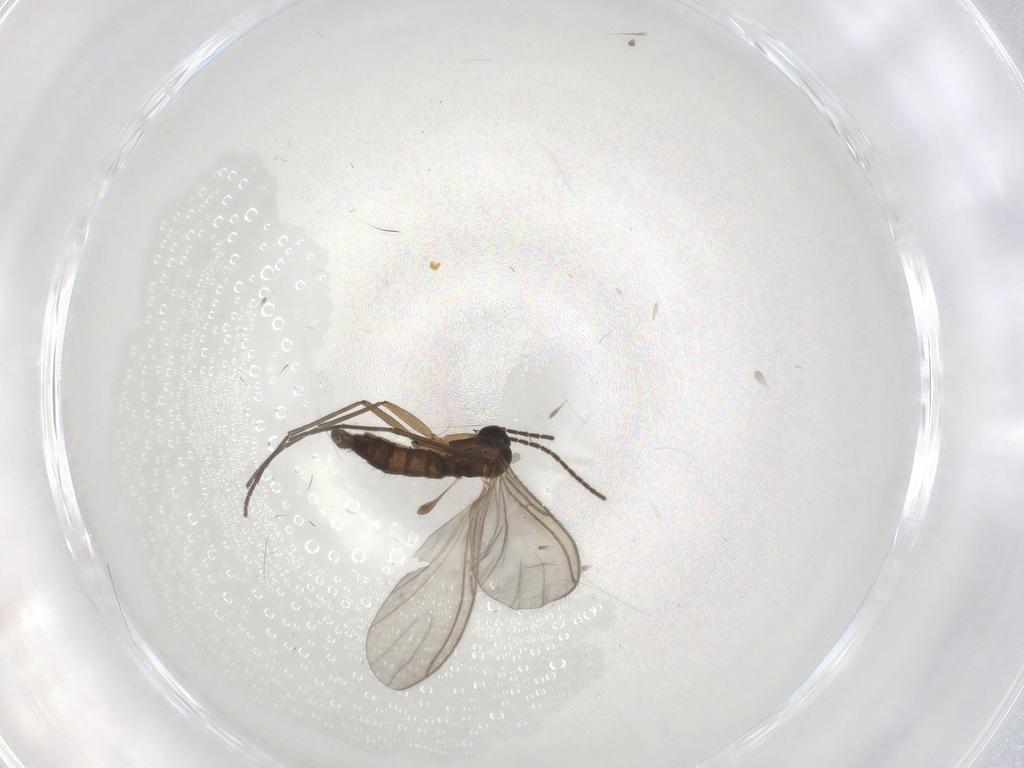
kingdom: Animalia
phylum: Arthropoda
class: Insecta
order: Diptera
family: Sciaridae
